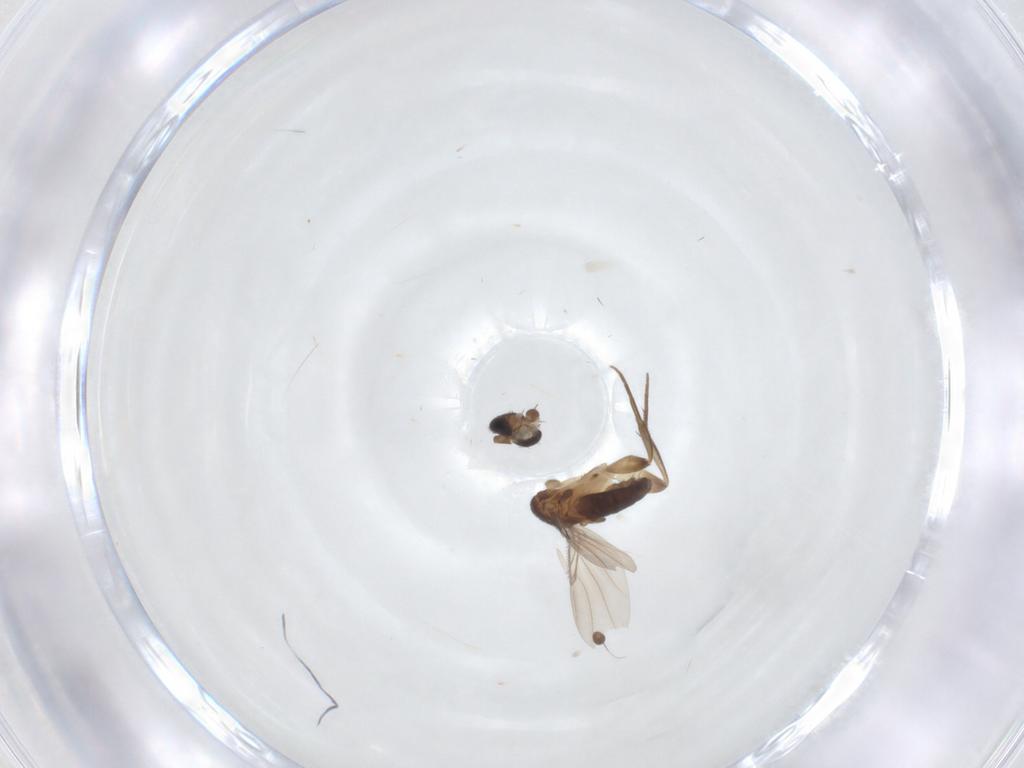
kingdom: Animalia
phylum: Arthropoda
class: Insecta
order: Diptera
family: Phoridae
